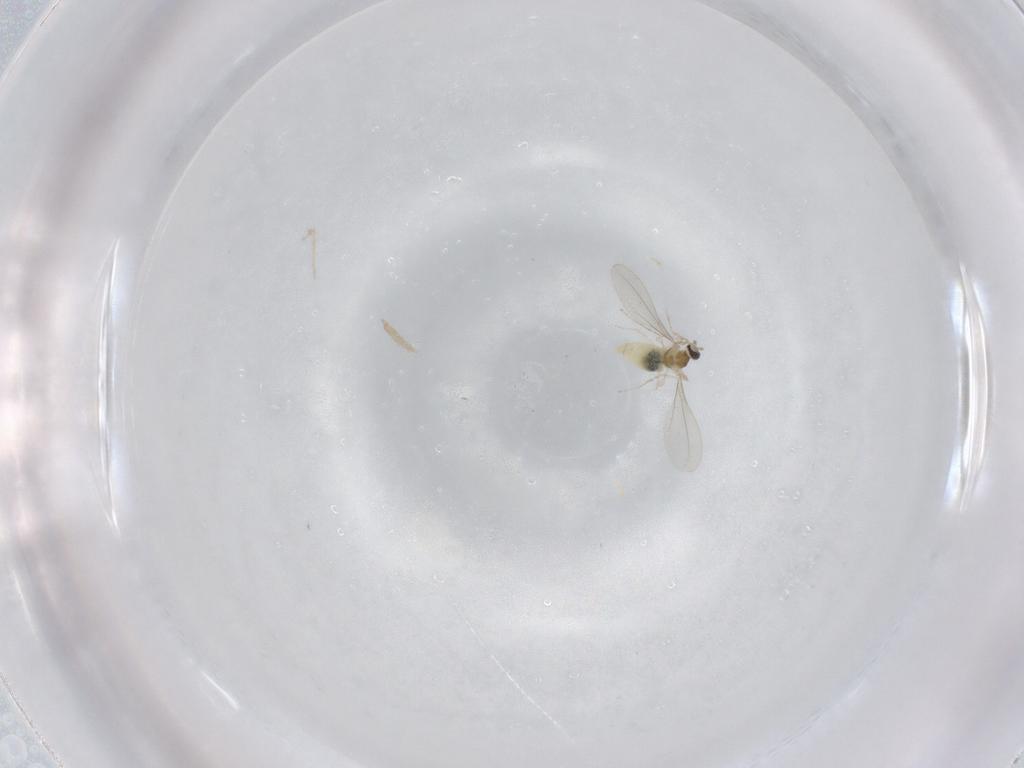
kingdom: Animalia
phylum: Arthropoda
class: Insecta
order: Diptera
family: Cecidomyiidae
